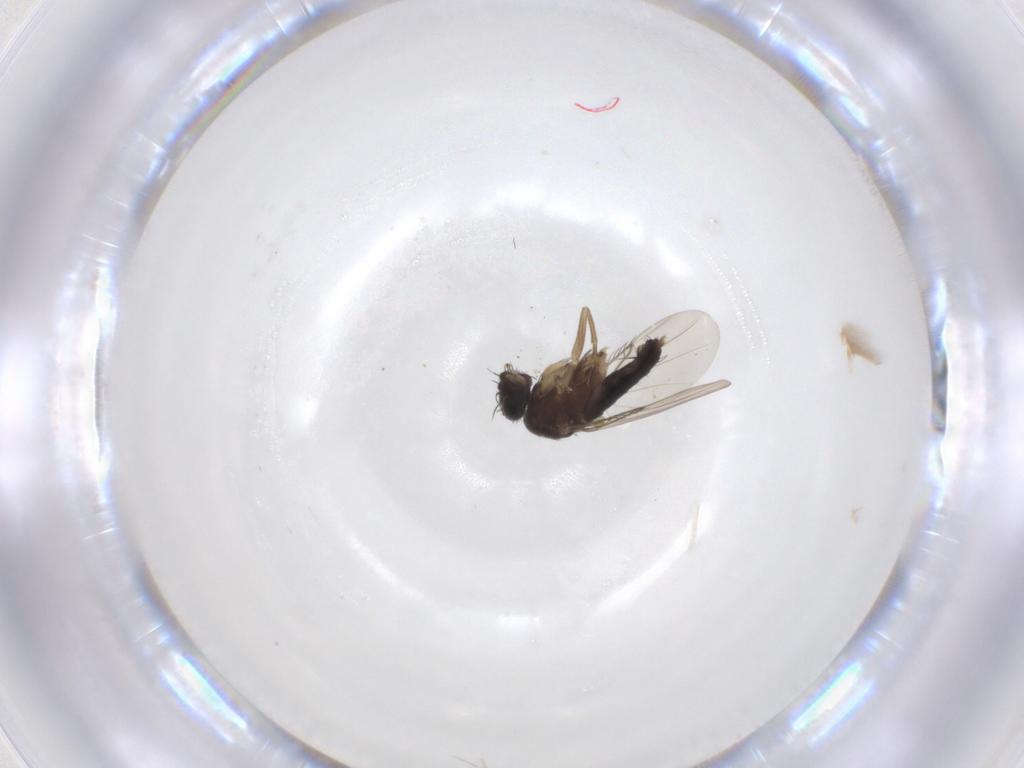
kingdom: Animalia
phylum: Arthropoda
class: Insecta
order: Diptera
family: Phoridae
